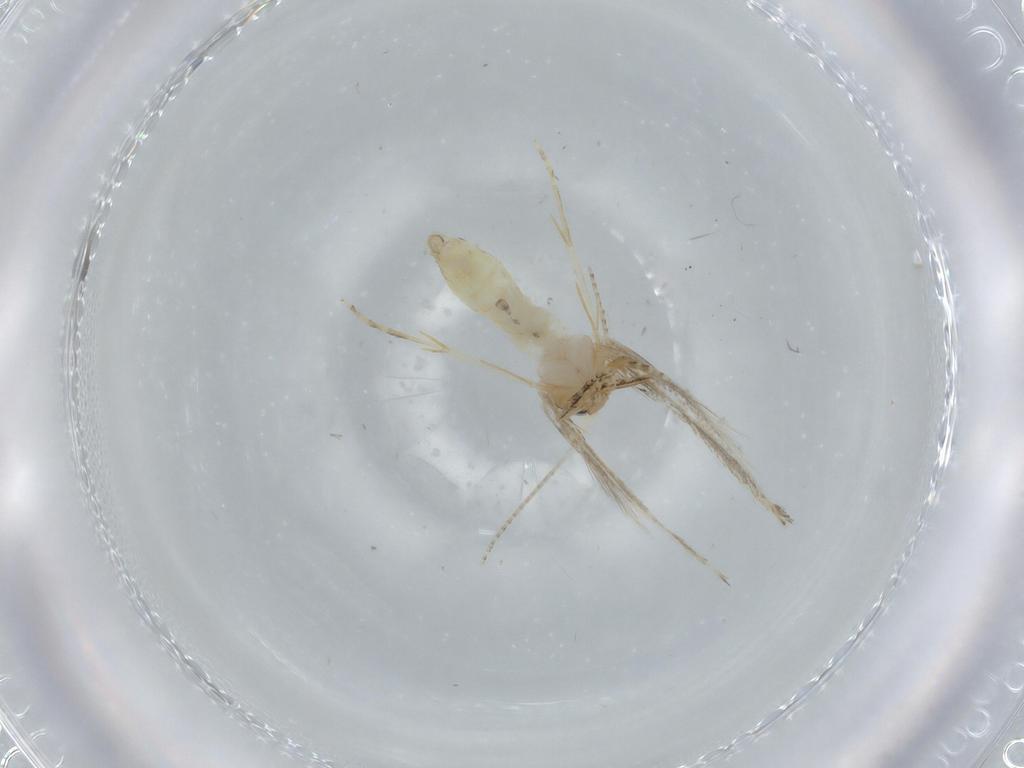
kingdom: Animalia
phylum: Arthropoda
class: Insecta
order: Lepidoptera
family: Bucculatricidae
